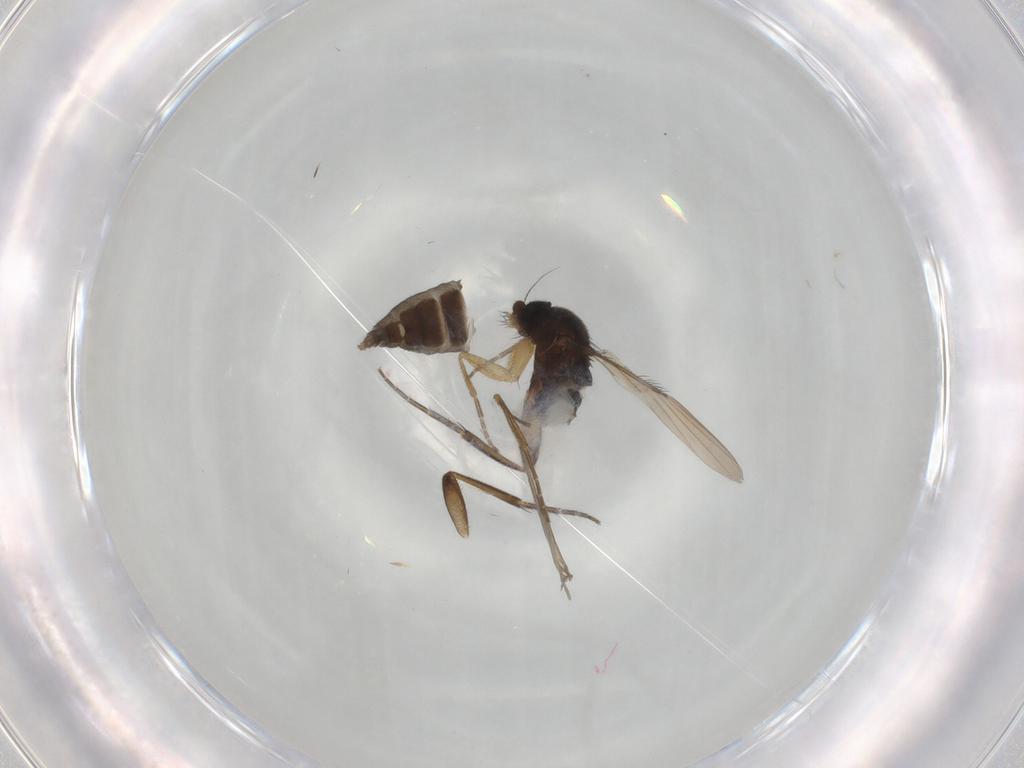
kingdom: Animalia
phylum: Arthropoda
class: Insecta
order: Diptera
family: Phoridae
